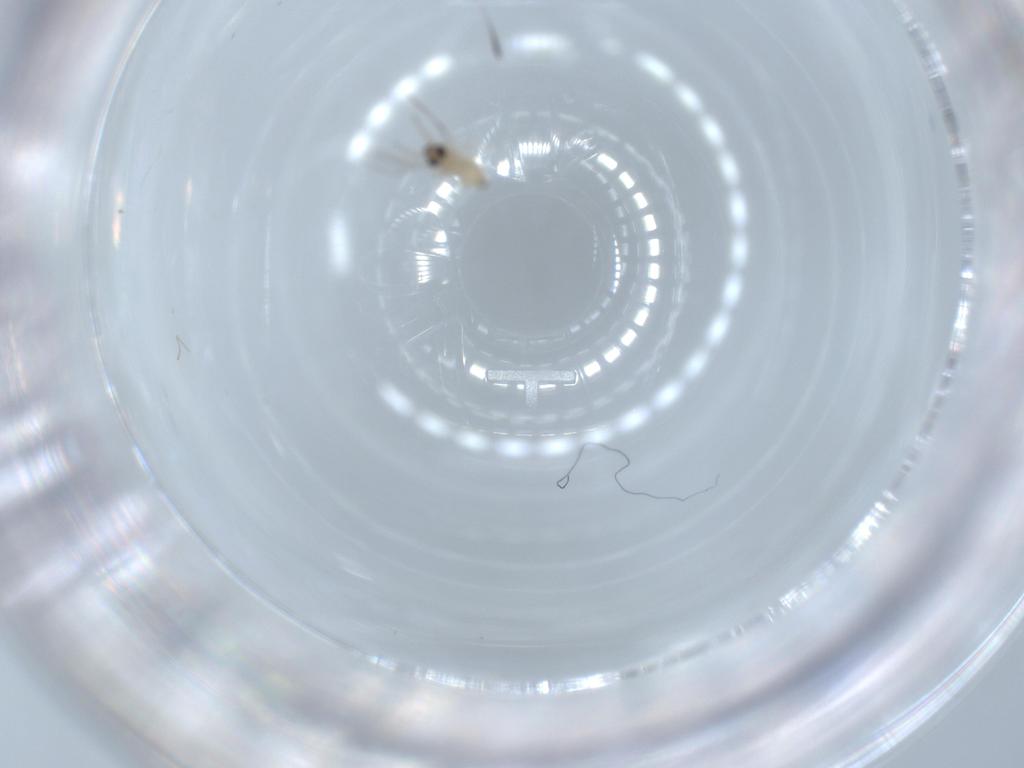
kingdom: Animalia
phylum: Arthropoda
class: Insecta
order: Diptera
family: Cecidomyiidae
